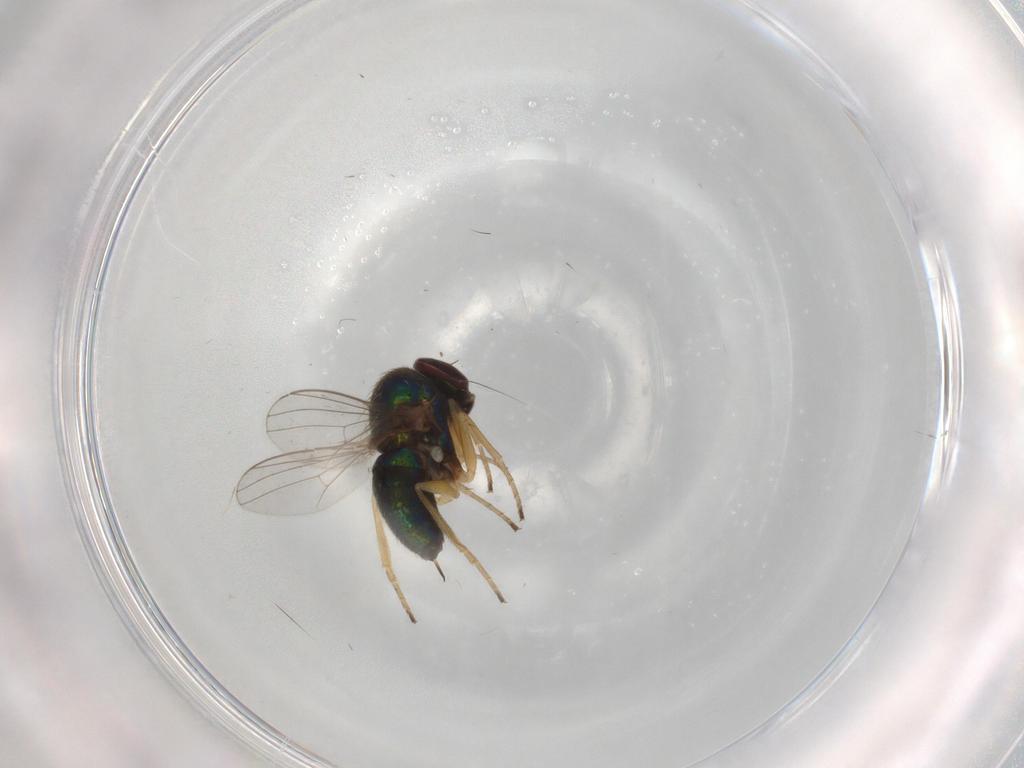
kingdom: Animalia
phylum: Arthropoda
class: Insecta
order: Diptera
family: Dolichopodidae
